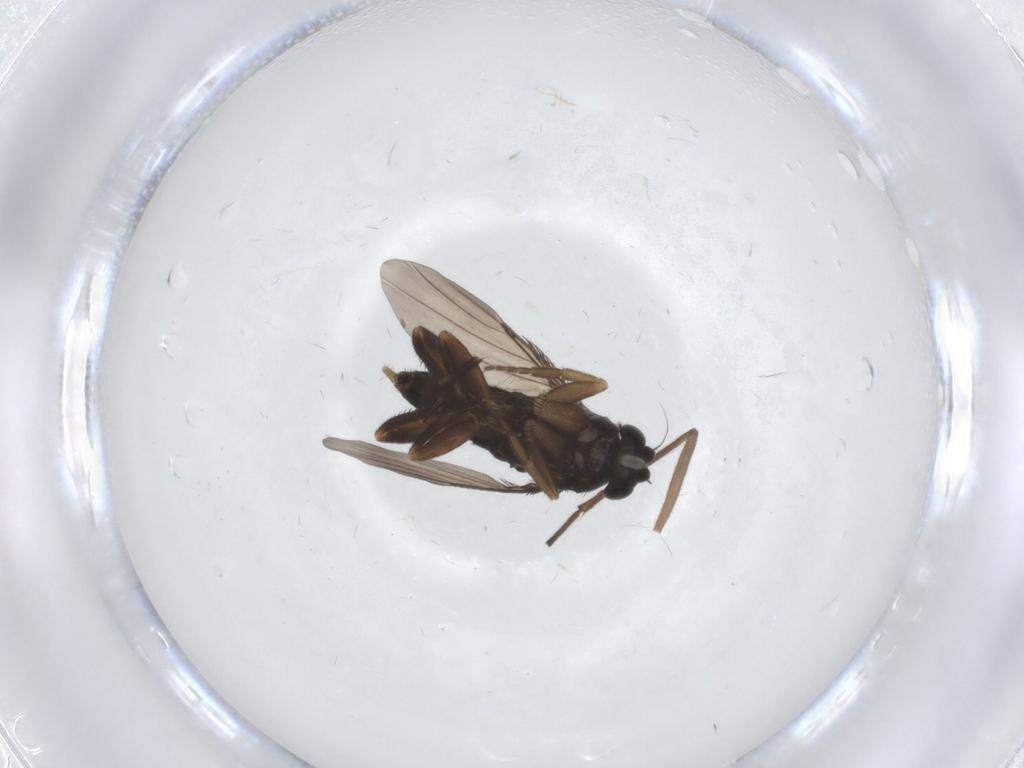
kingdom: Animalia
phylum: Arthropoda
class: Insecta
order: Diptera
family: Phoridae
